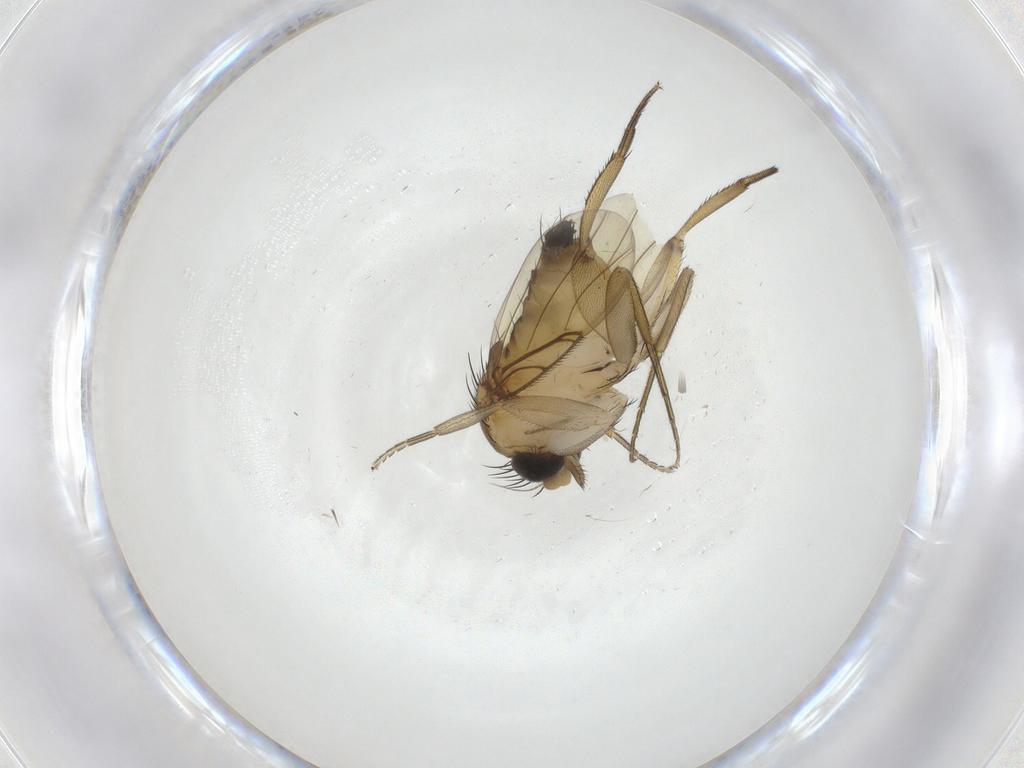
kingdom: Animalia
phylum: Arthropoda
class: Insecta
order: Diptera
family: Phoridae
